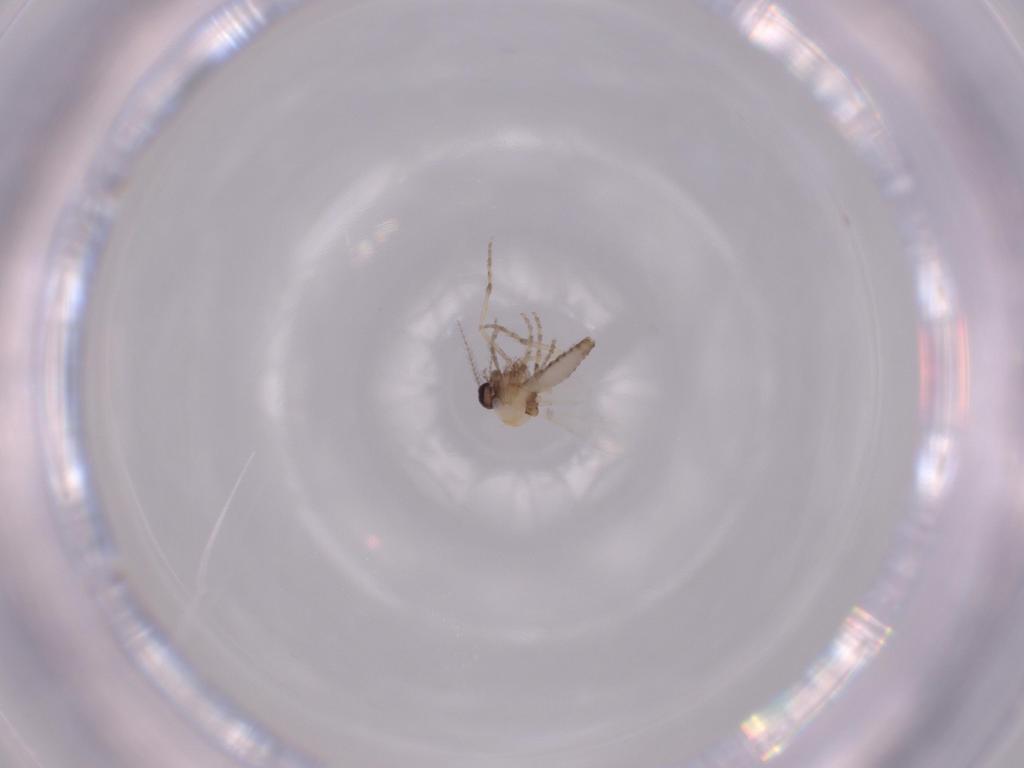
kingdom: Animalia
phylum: Arthropoda
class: Insecta
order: Diptera
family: Ceratopogonidae
